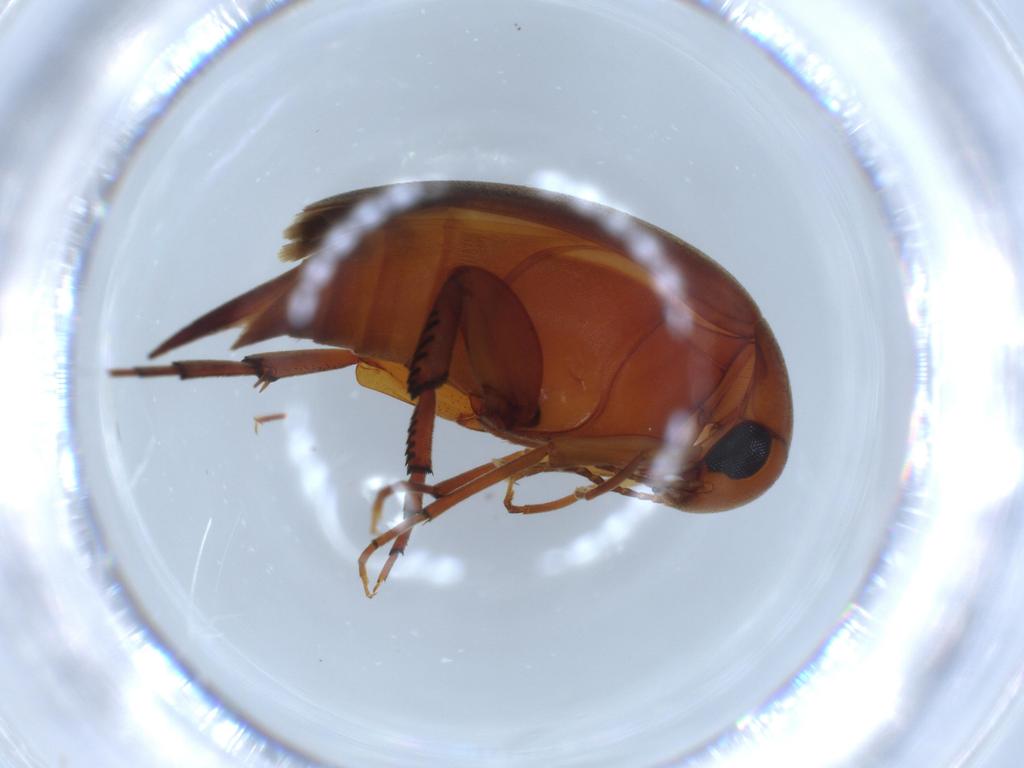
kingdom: Animalia
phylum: Arthropoda
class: Insecta
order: Coleoptera
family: Mordellidae
